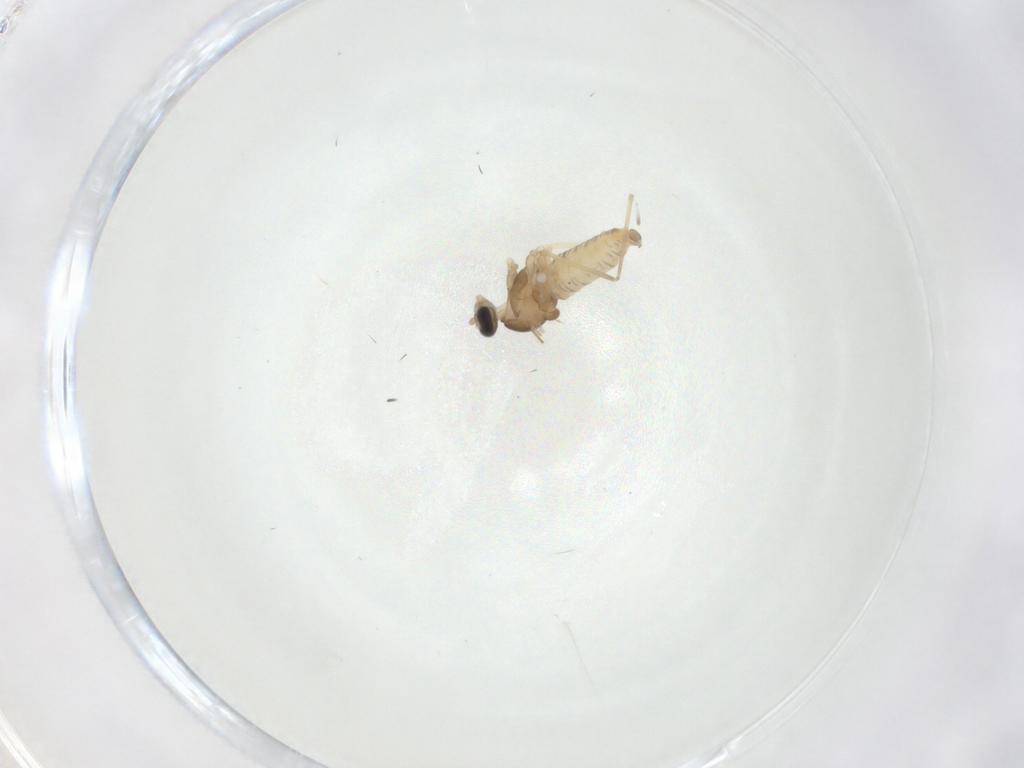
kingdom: Animalia
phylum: Arthropoda
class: Insecta
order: Diptera
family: Cecidomyiidae
